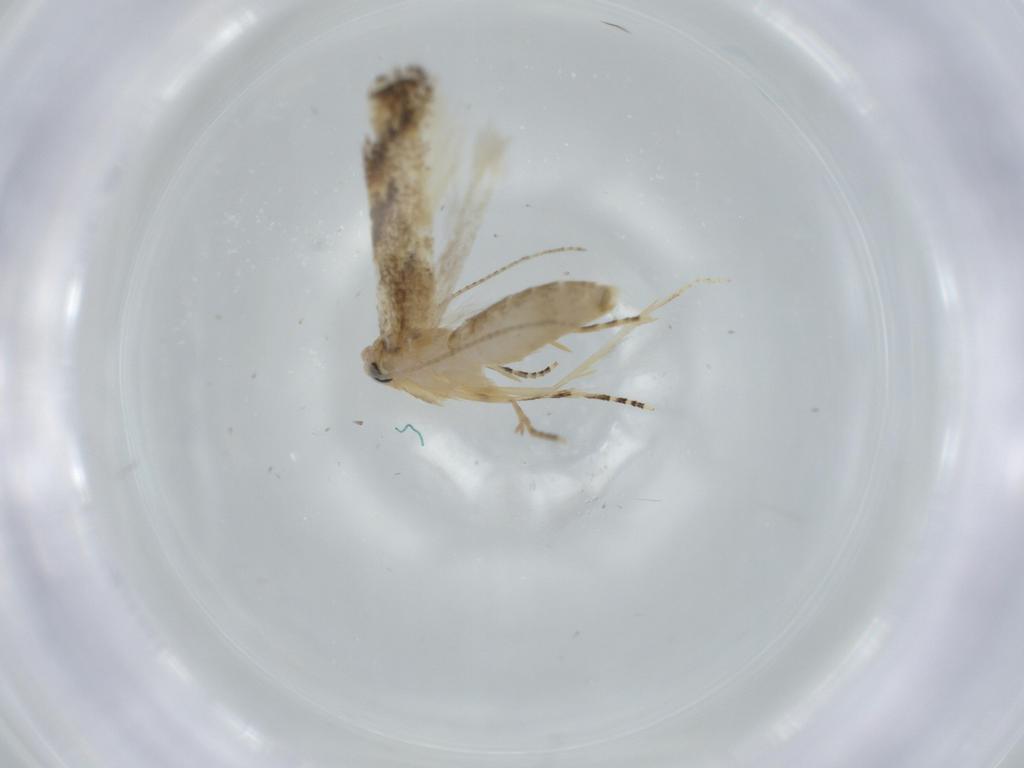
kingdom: Animalia
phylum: Arthropoda
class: Insecta
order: Lepidoptera
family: Bucculatricidae
